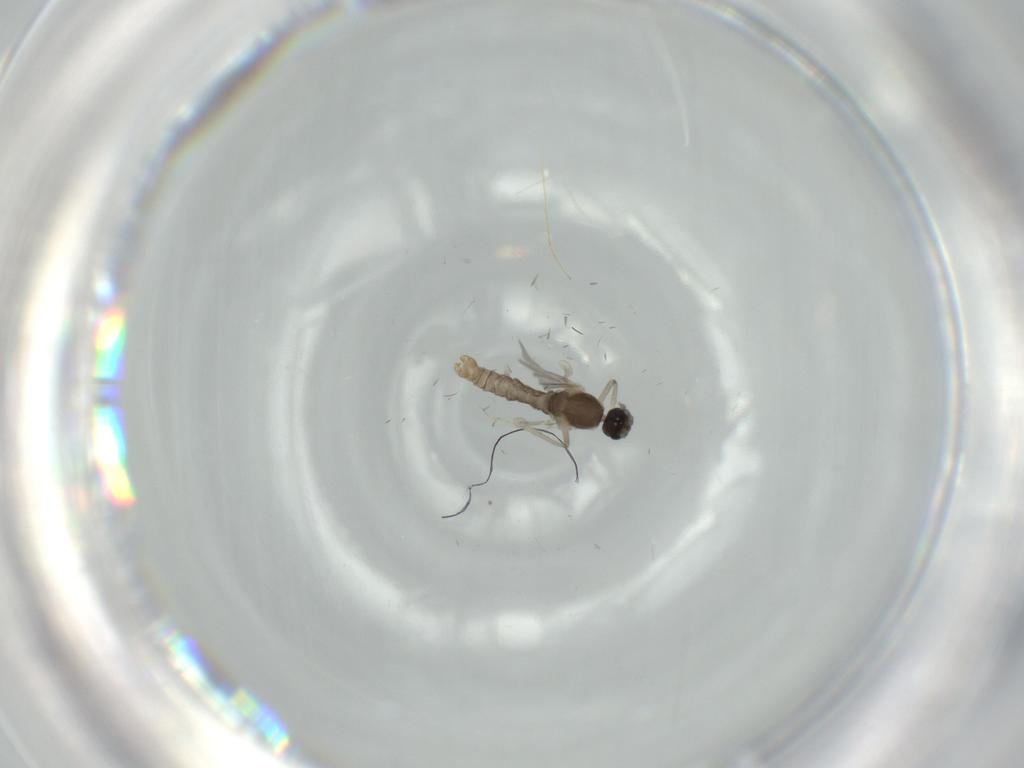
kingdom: Animalia
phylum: Arthropoda
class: Insecta
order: Diptera
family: Cecidomyiidae
